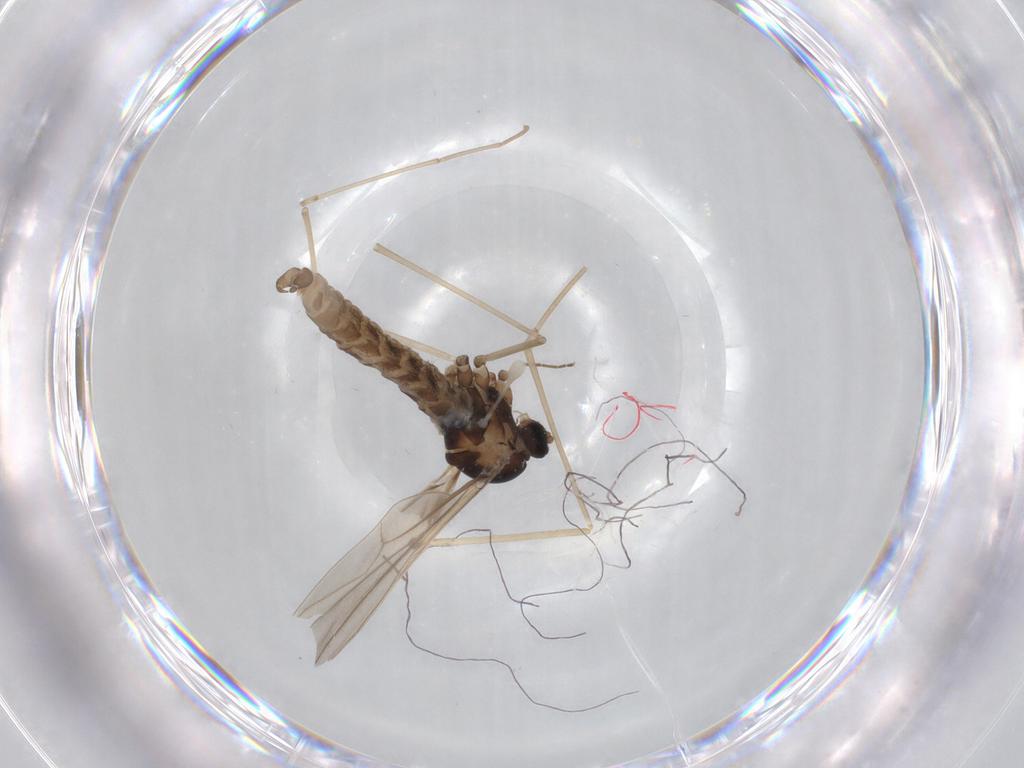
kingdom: Animalia
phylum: Arthropoda
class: Insecta
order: Diptera
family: Cecidomyiidae
